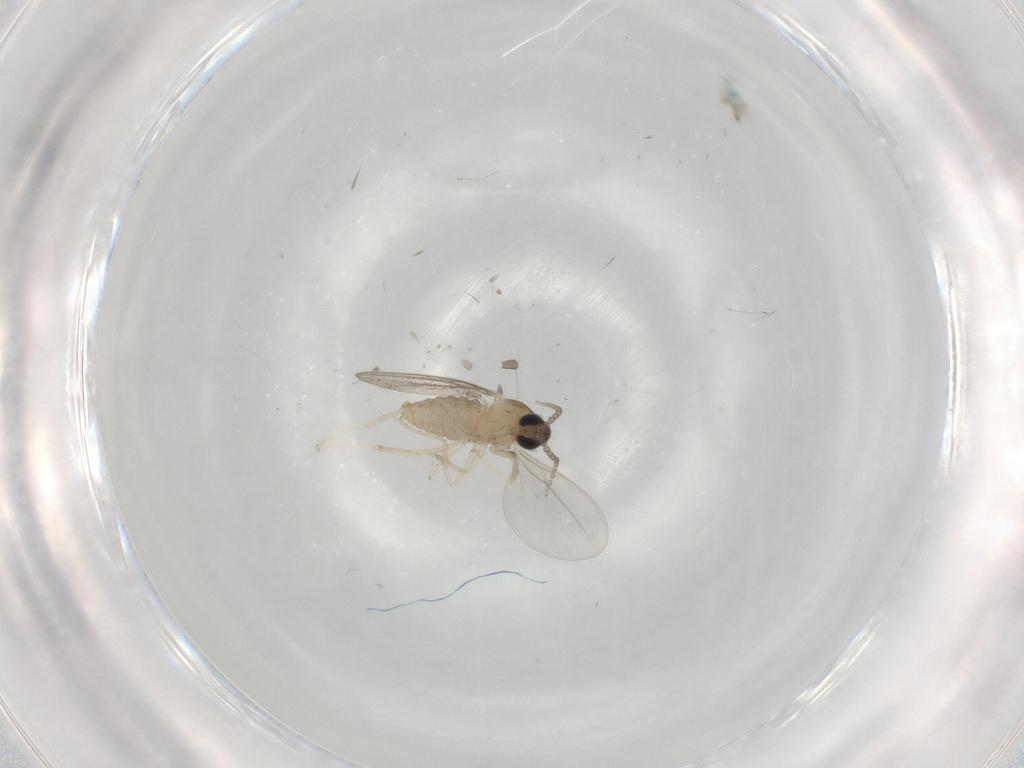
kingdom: Animalia
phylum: Arthropoda
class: Insecta
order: Diptera
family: Cecidomyiidae
